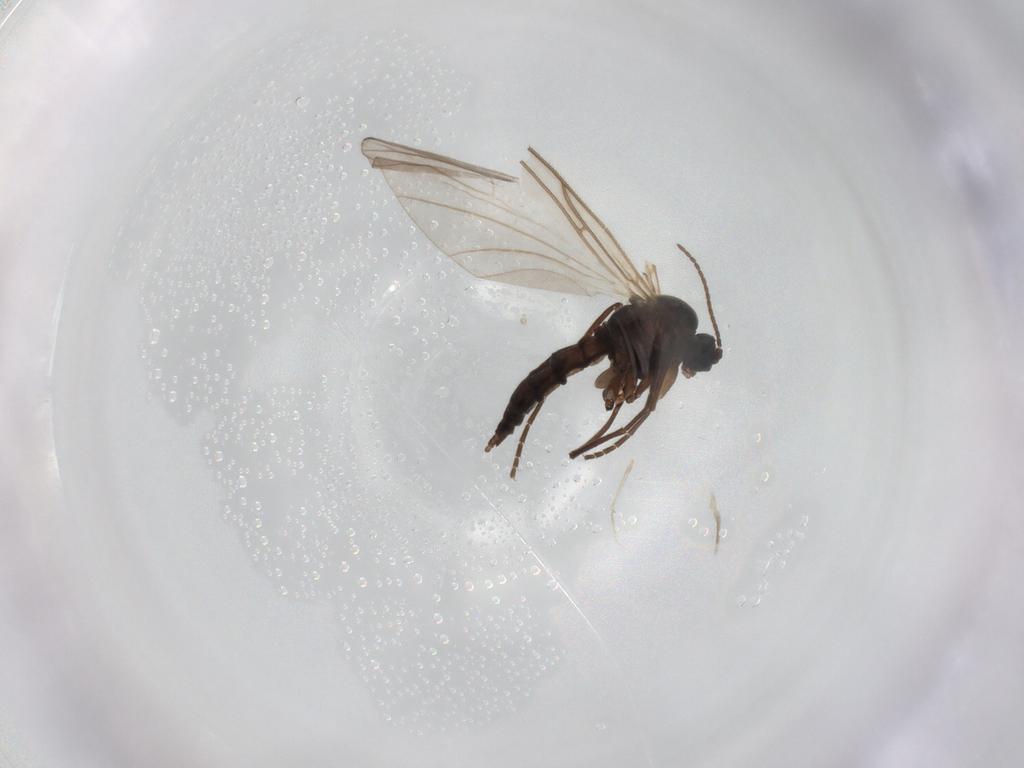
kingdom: Animalia
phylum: Arthropoda
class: Insecta
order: Diptera
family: Sciaridae
